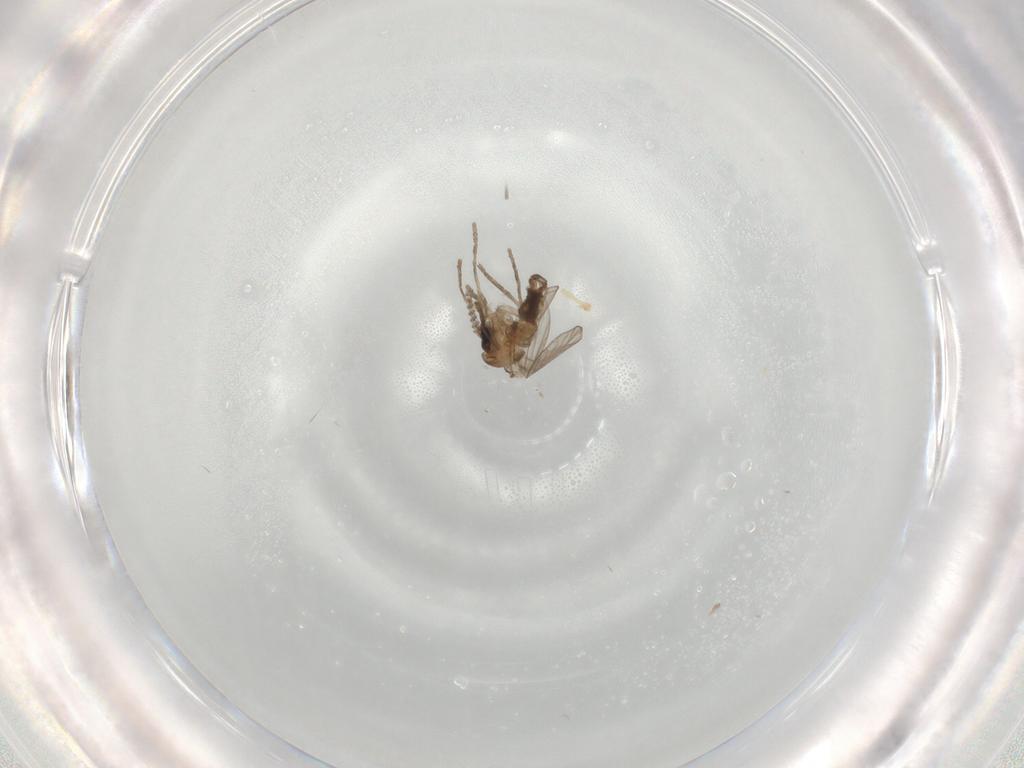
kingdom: Animalia
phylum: Arthropoda
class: Insecta
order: Diptera
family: Psychodidae
